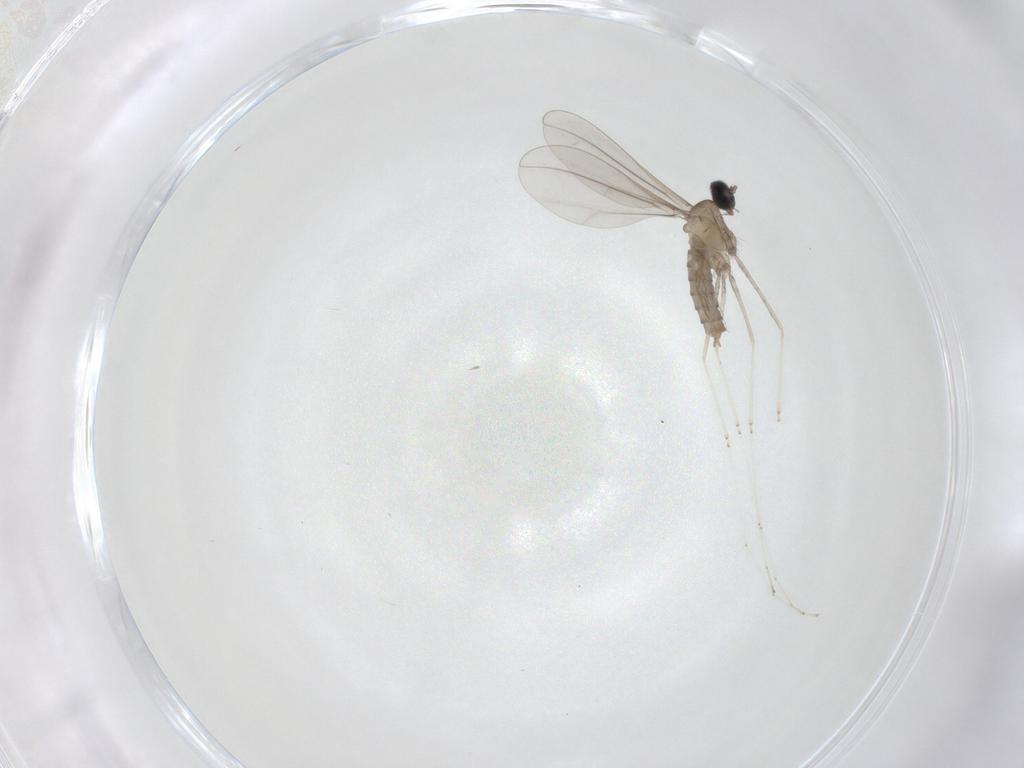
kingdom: Animalia
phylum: Arthropoda
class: Insecta
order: Diptera
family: Cecidomyiidae
